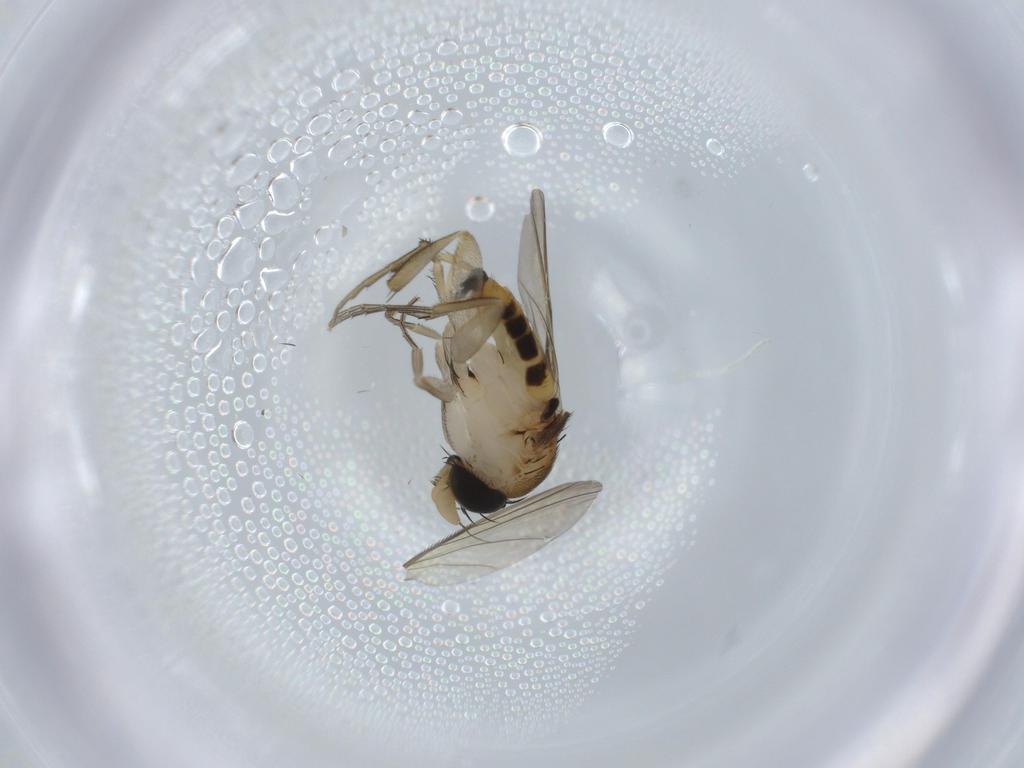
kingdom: Animalia
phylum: Arthropoda
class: Insecta
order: Diptera
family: Phoridae
